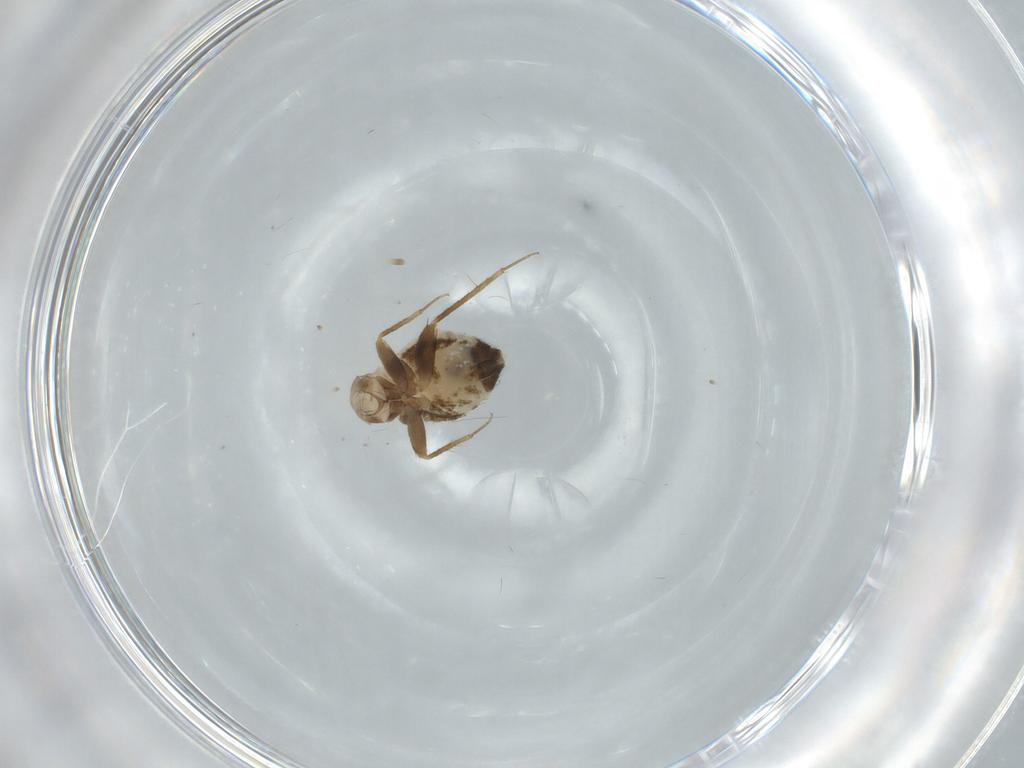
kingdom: Animalia
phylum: Arthropoda
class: Insecta
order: Psocodea
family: Lepidopsocidae
